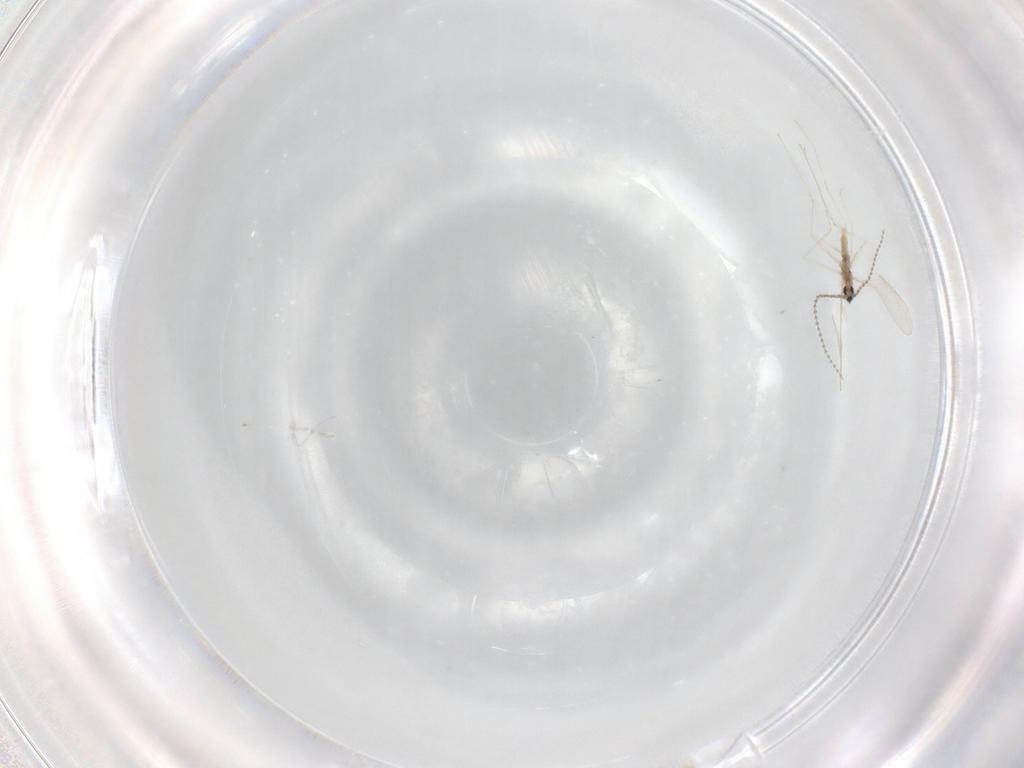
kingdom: Animalia
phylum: Arthropoda
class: Insecta
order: Diptera
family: Cecidomyiidae
